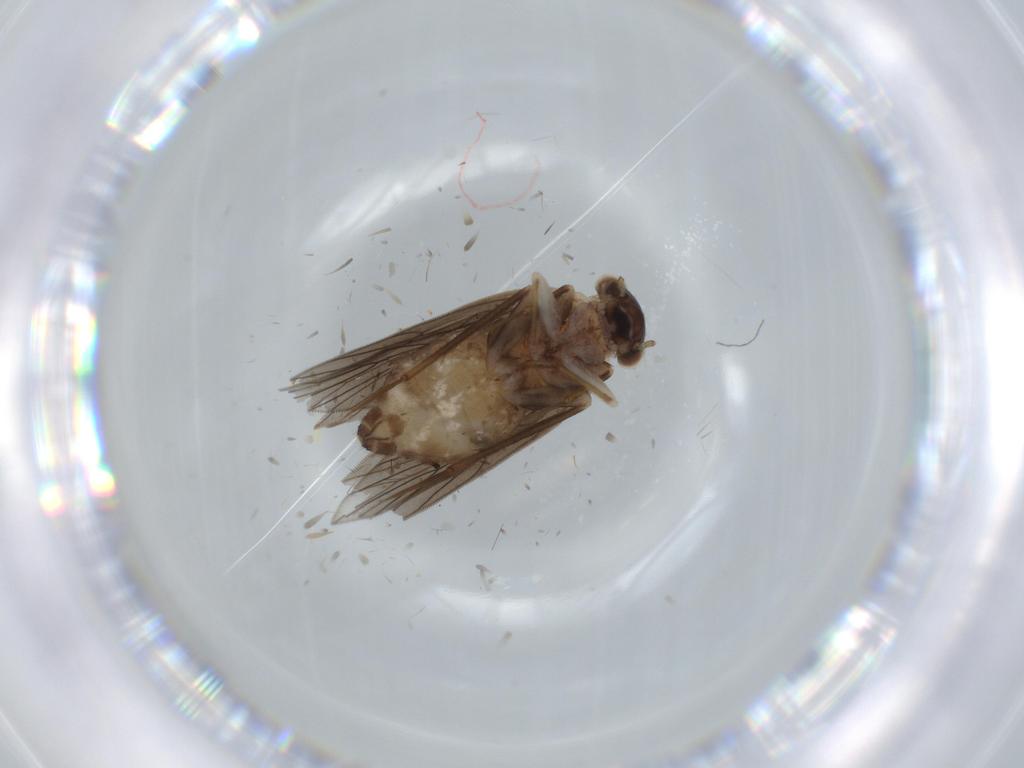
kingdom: Animalia
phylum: Arthropoda
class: Insecta
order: Psocodea
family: Lepidopsocidae
